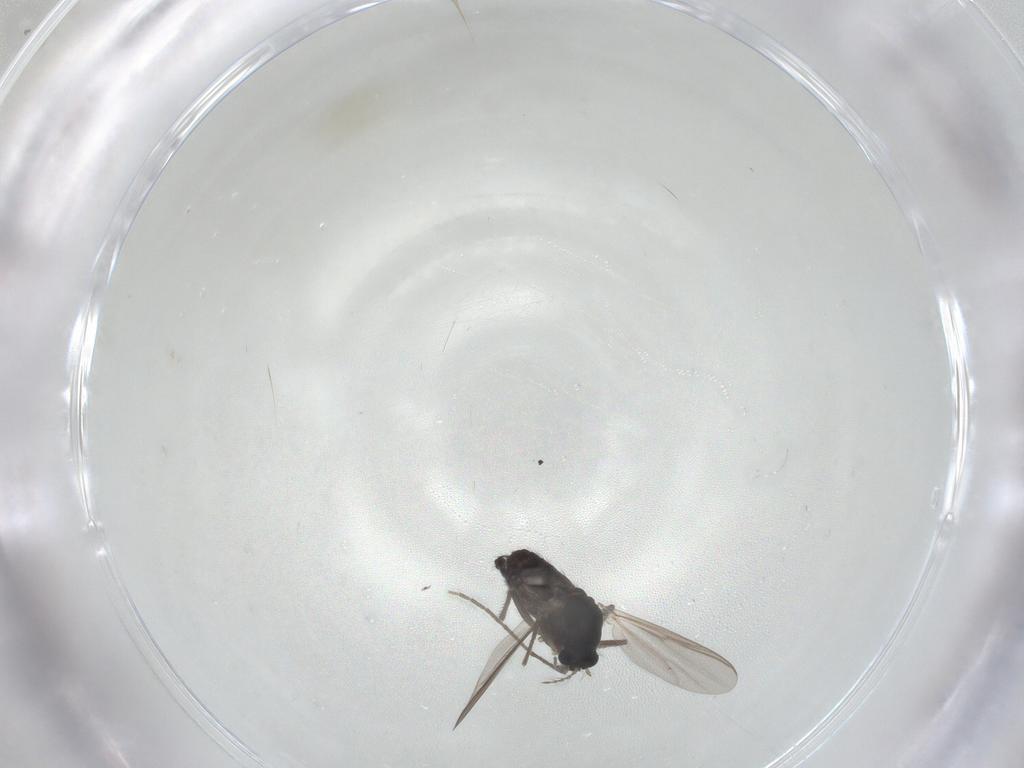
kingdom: Animalia
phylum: Arthropoda
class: Insecta
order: Diptera
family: Chironomidae
